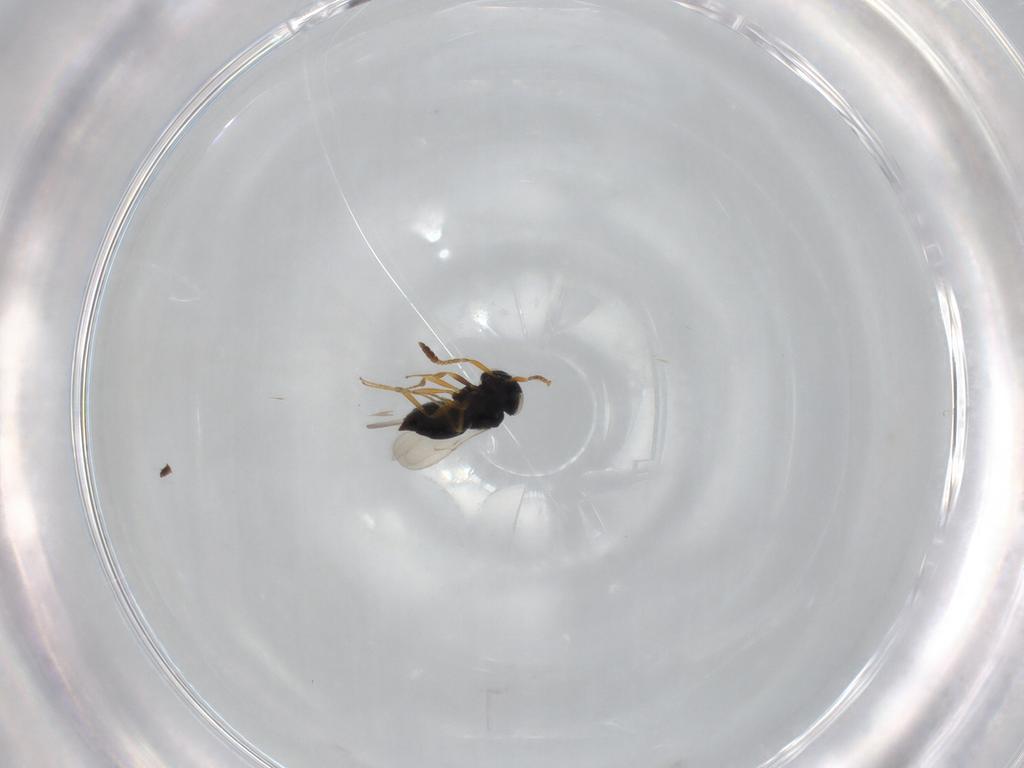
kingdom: Animalia
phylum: Arthropoda
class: Insecta
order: Hymenoptera
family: Scelionidae
